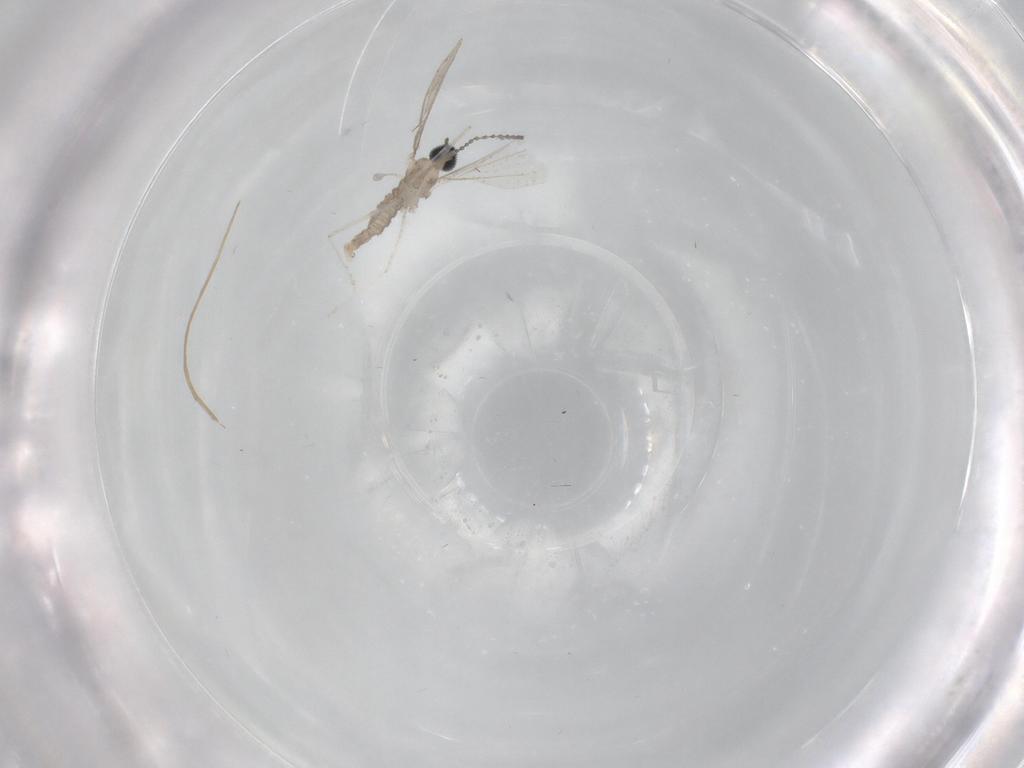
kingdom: Animalia
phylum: Arthropoda
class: Insecta
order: Diptera
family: Cecidomyiidae
